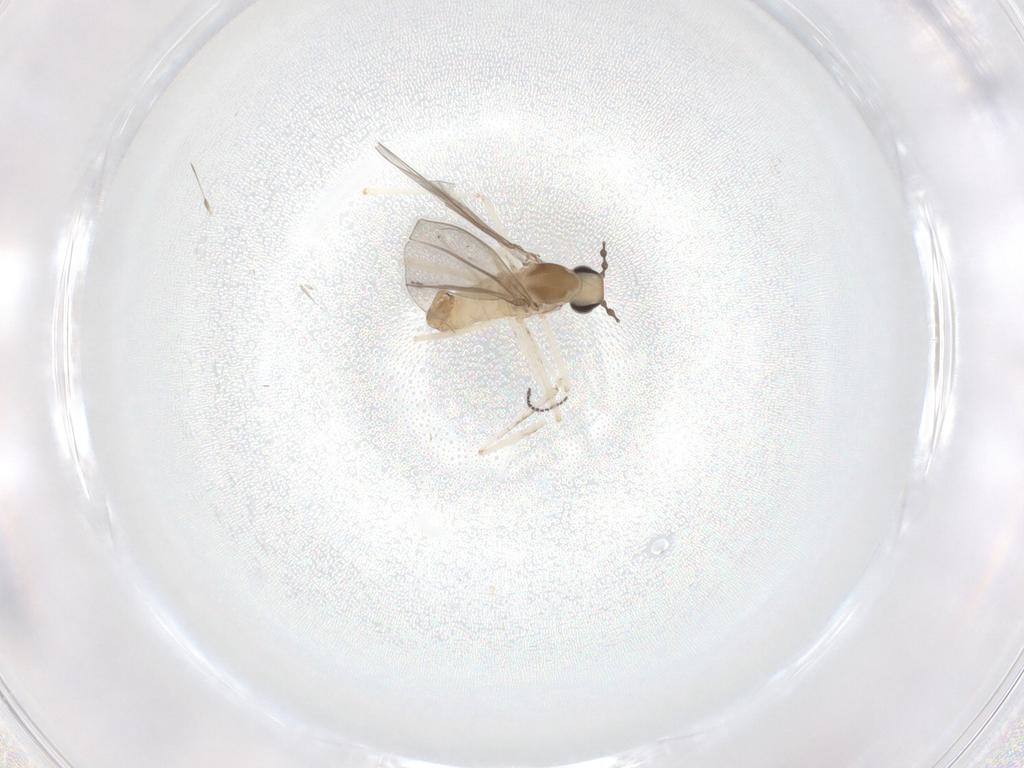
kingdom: Animalia
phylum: Arthropoda
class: Insecta
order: Diptera
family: Cecidomyiidae
